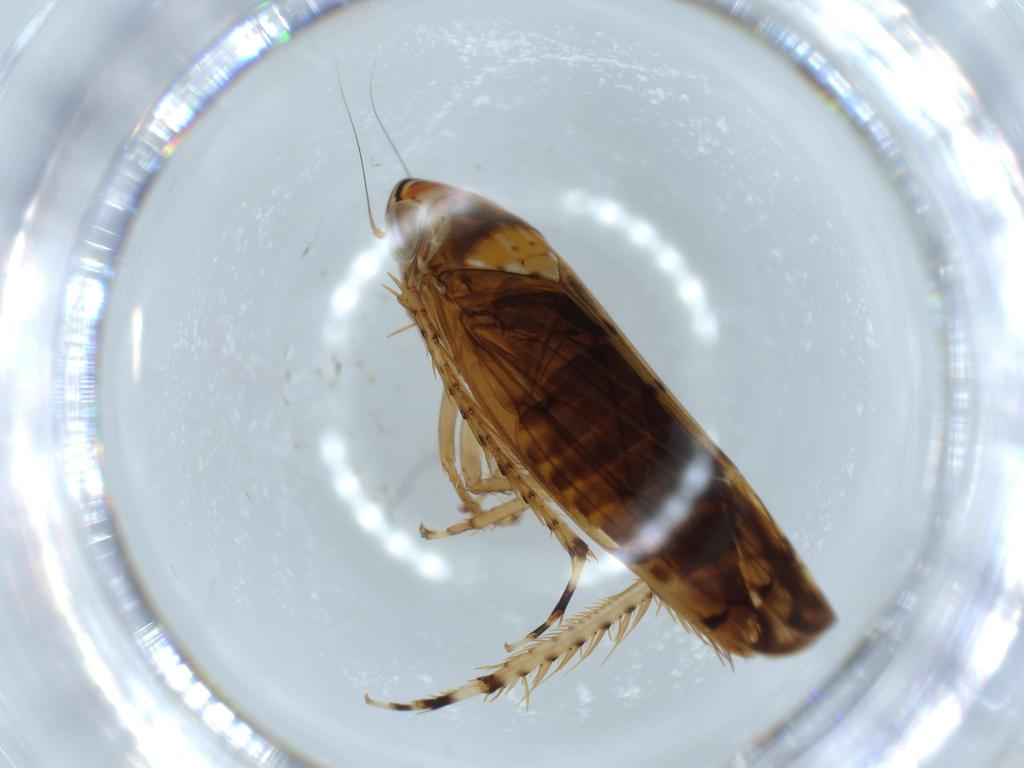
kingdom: Animalia
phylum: Arthropoda
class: Insecta
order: Hemiptera
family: Cicadellidae
